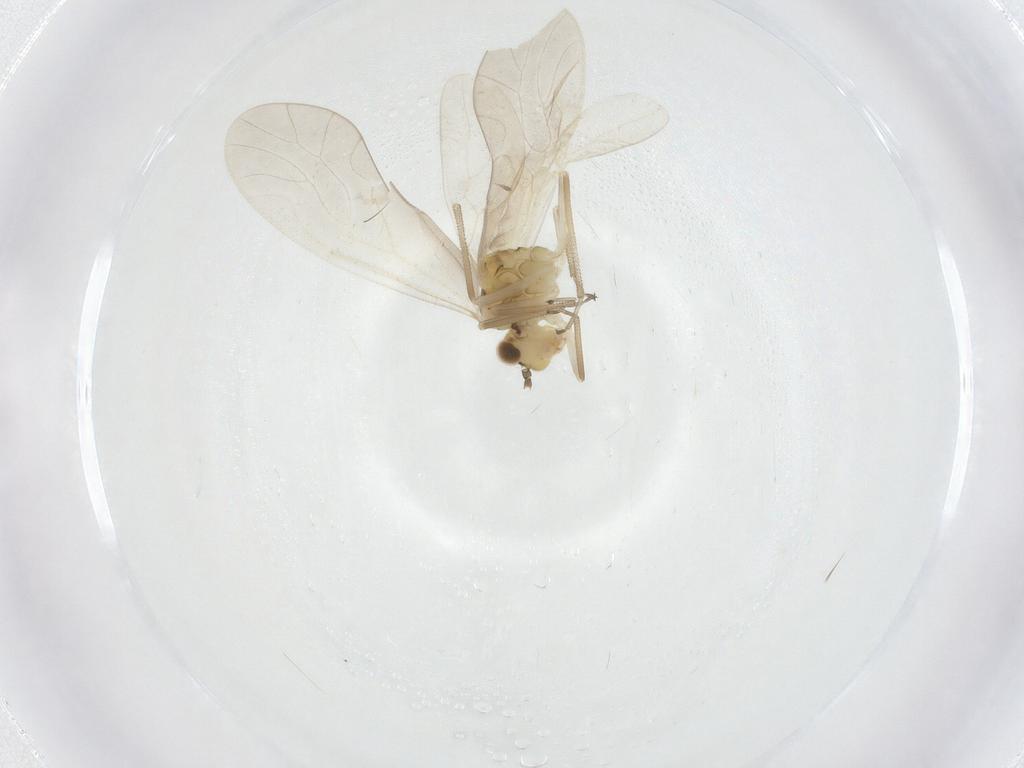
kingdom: Animalia
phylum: Arthropoda
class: Insecta
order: Psocodea
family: Caeciliusidae
